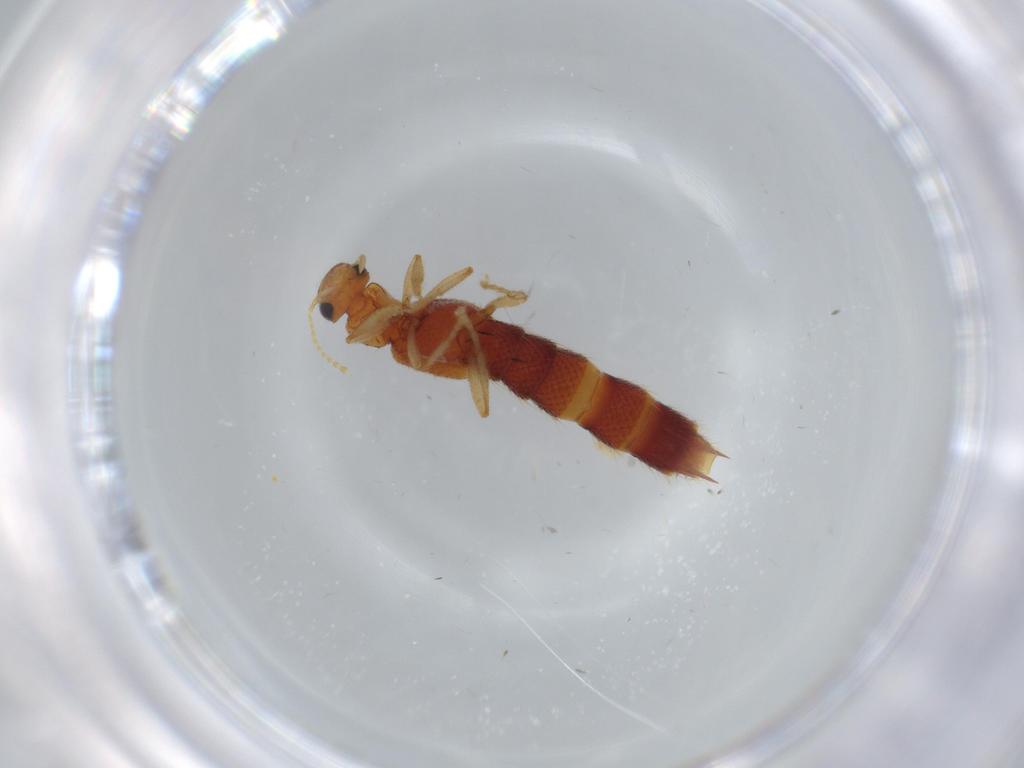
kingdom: Animalia
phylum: Arthropoda
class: Insecta
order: Coleoptera
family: Staphylinidae
